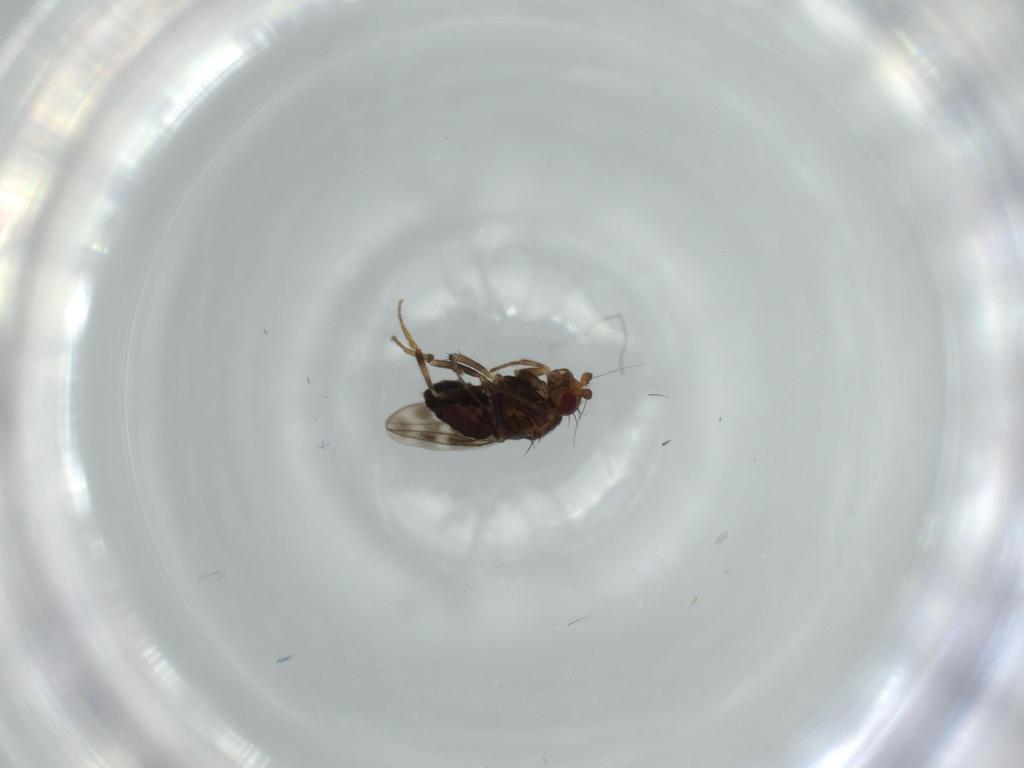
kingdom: Animalia
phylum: Arthropoda
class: Insecta
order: Diptera
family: Sphaeroceridae
